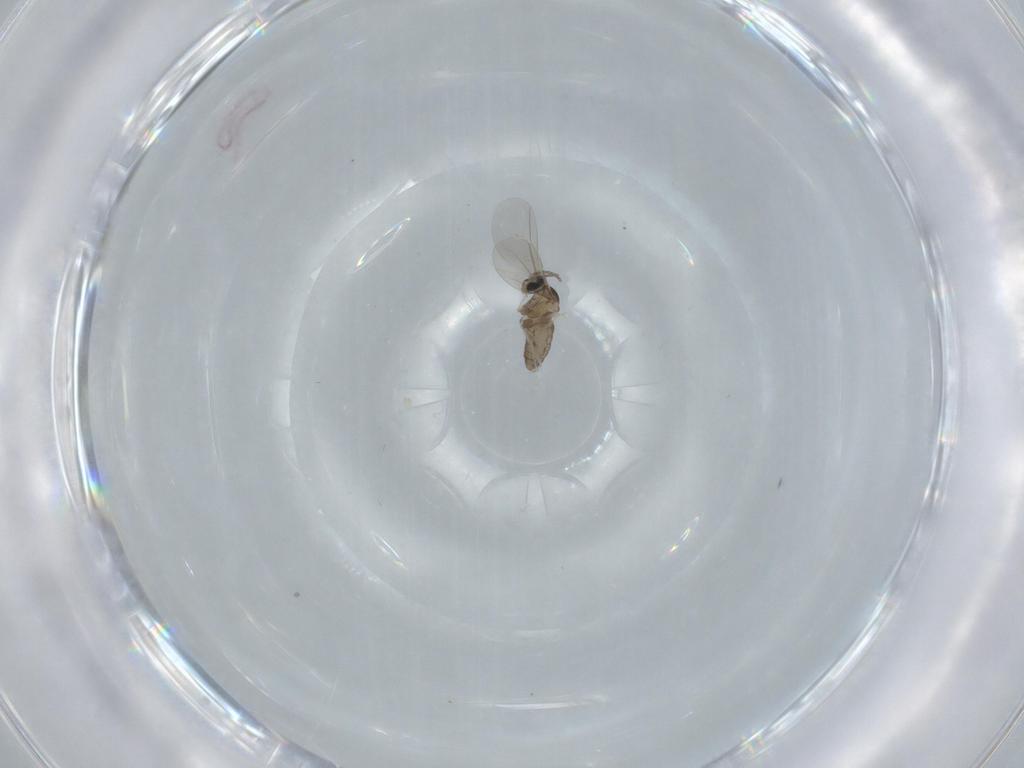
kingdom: Animalia
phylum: Arthropoda
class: Insecta
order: Diptera
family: Cecidomyiidae
